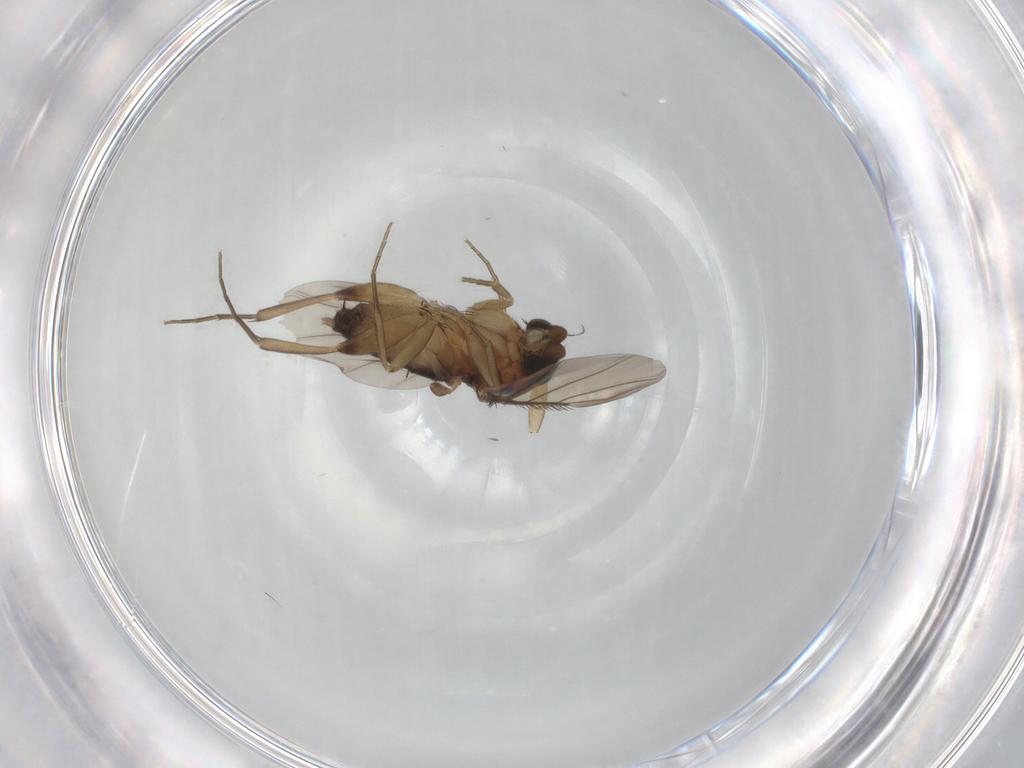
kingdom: Animalia
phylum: Arthropoda
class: Insecta
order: Diptera
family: Phoridae
